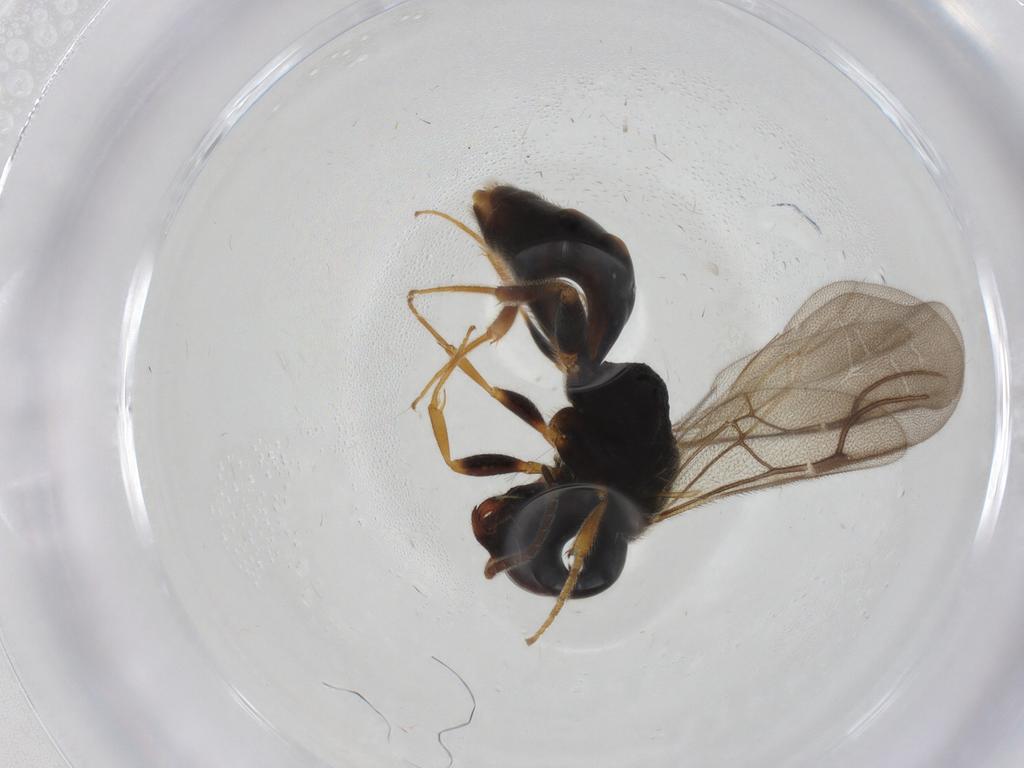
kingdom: Animalia
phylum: Arthropoda
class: Insecta
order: Hymenoptera
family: Bethylidae
